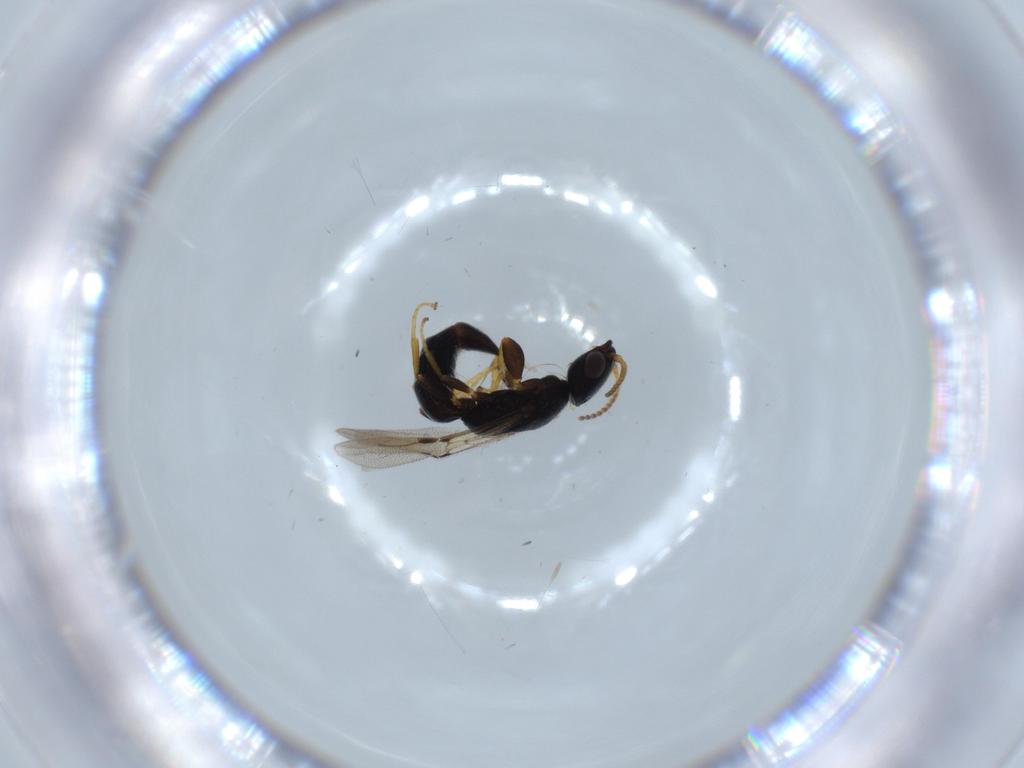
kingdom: Animalia
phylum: Arthropoda
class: Insecta
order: Hymenoptera
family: Bethylidae
